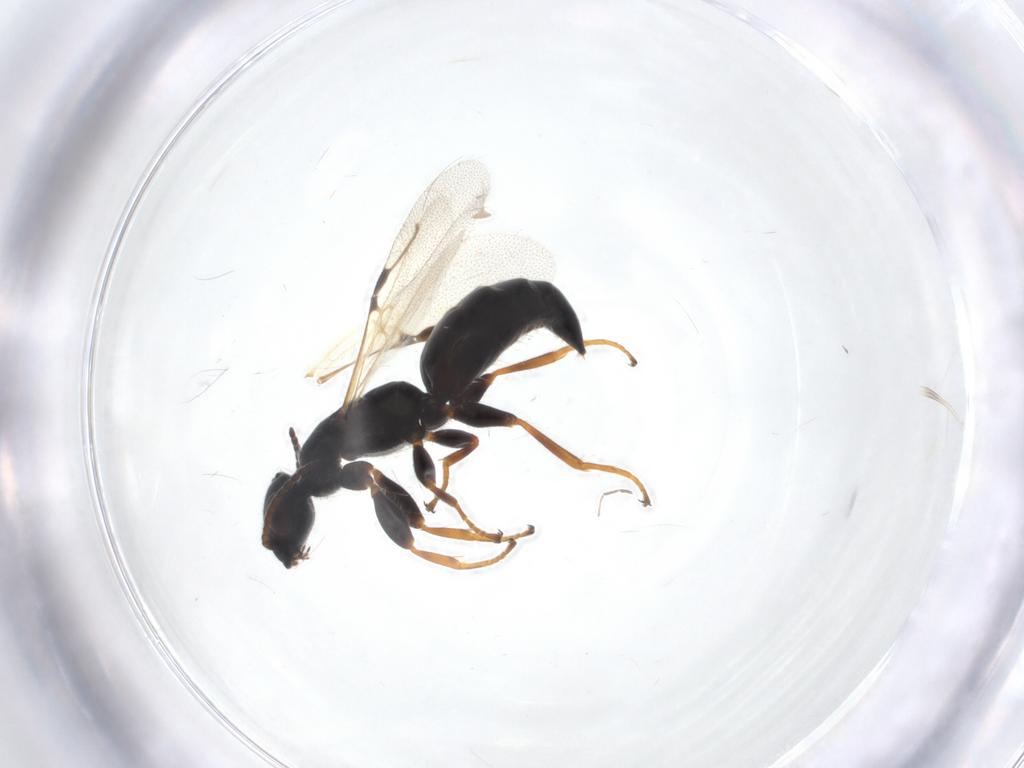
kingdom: Animalia
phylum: Arthropoda
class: Insecta
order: Hymenoptera
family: Bethylidae
